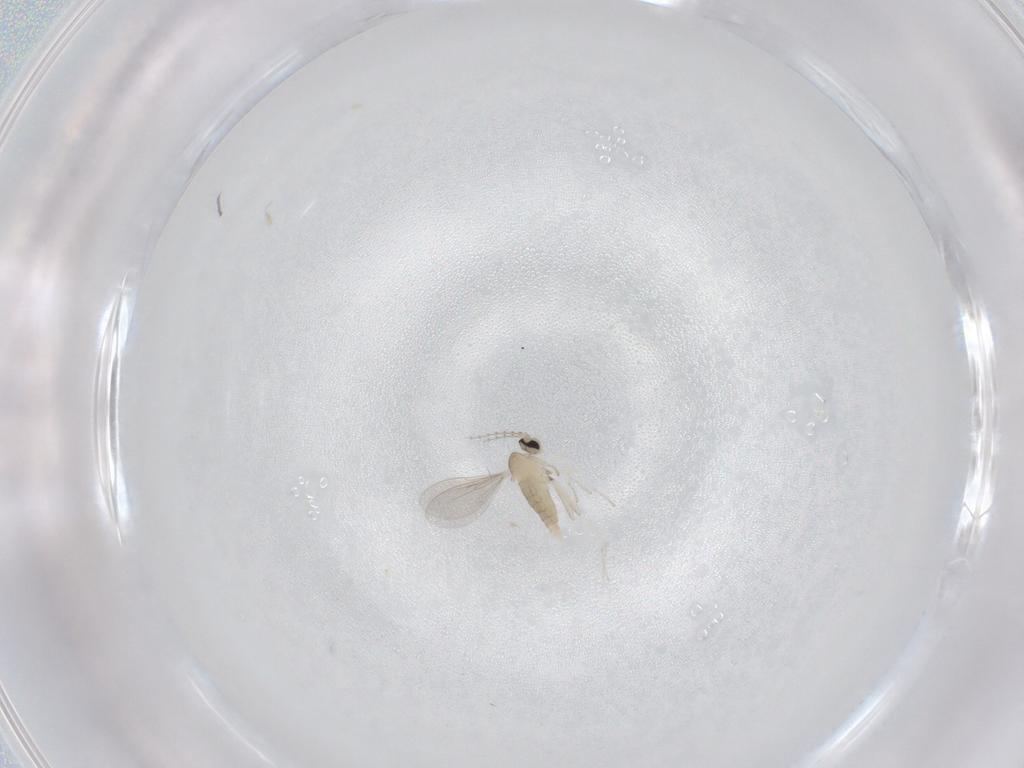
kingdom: Animalia
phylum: Arthropoda
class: Insecta
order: Diptera
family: Cecidomyiidae
